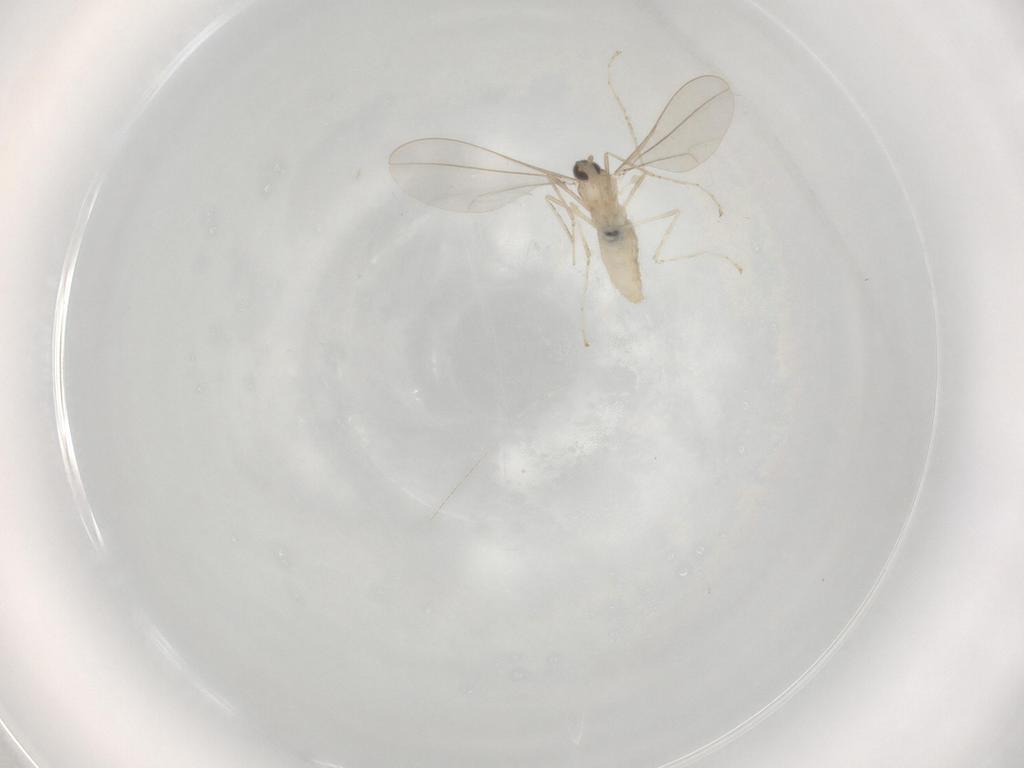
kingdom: Animalia
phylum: Arthropoda
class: Insecta
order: Diptera
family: Cecidomyiidae
